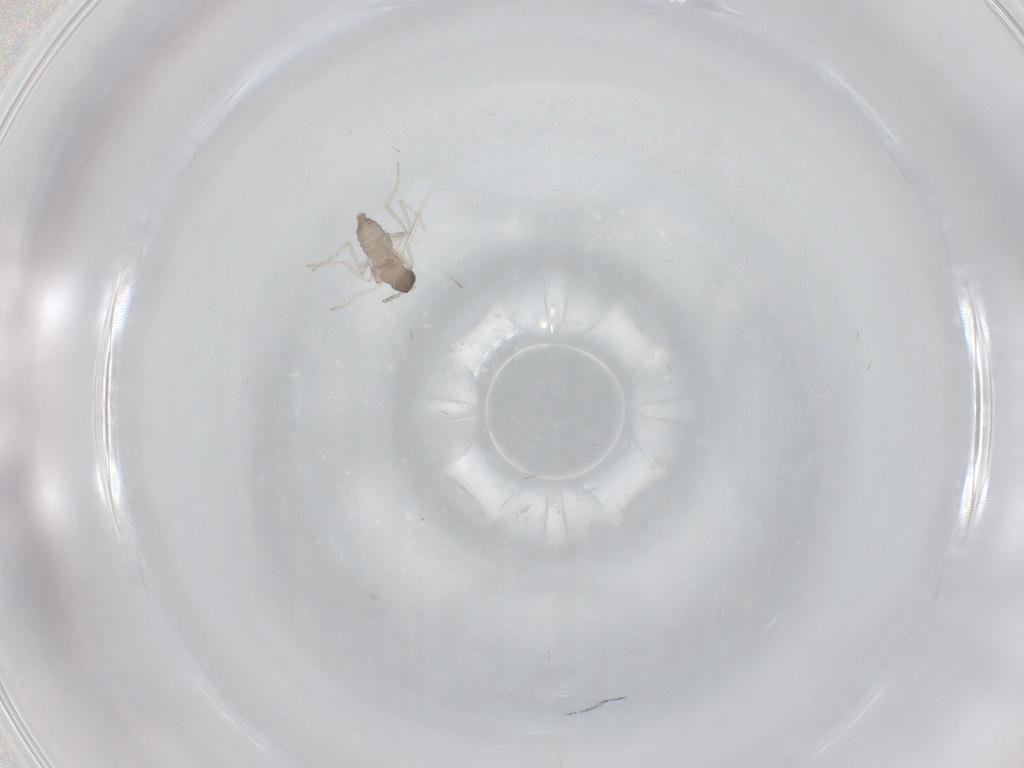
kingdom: Animalia
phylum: Arthropoda
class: Insecta
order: Diptera
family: Cecidomyiidae
